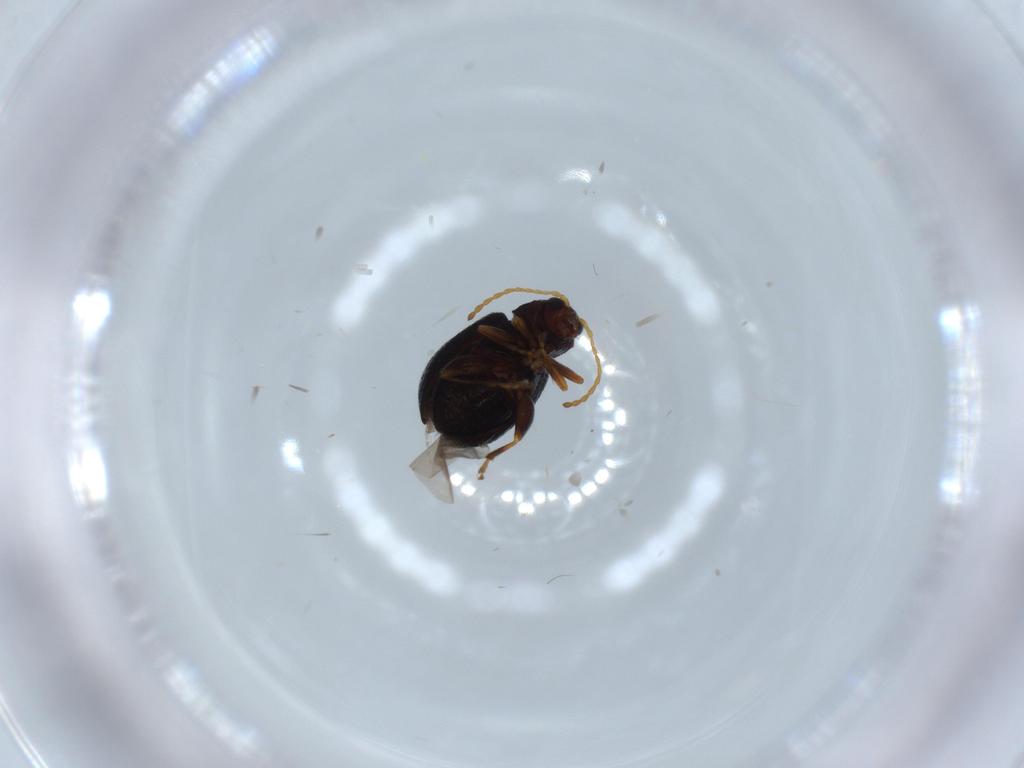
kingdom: Animalia
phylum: Arthropoda
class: Insecta
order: Coleoptera
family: Chrysomelidae
